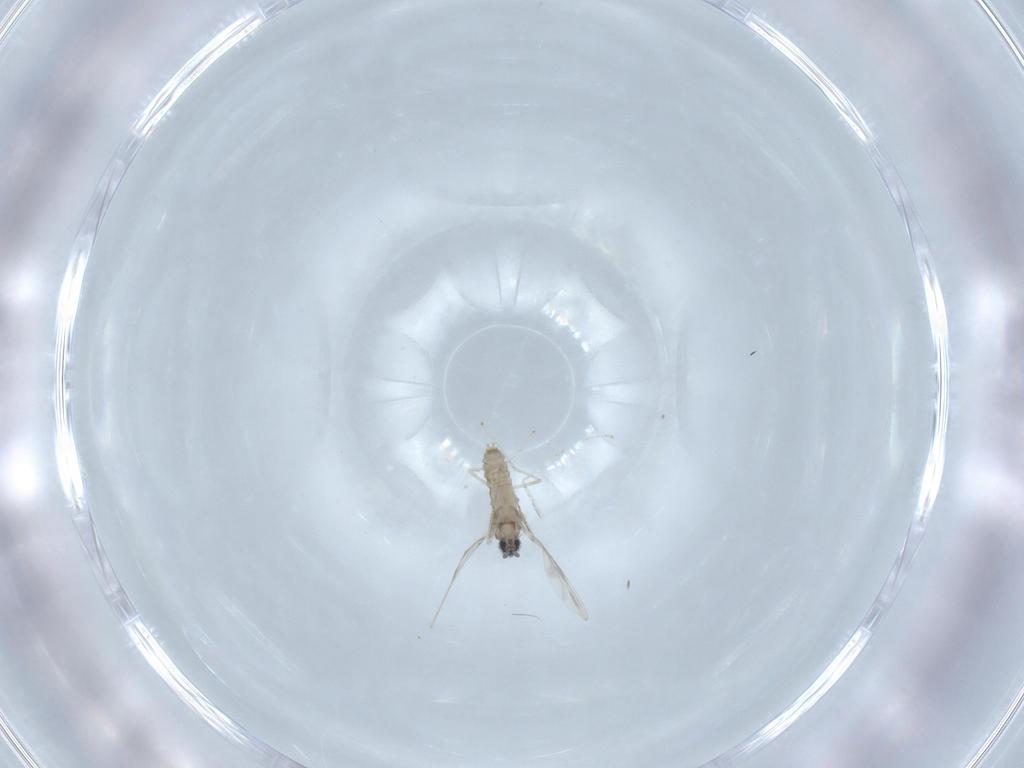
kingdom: Animalia
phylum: Arthropoda
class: Insecta
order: Diptera
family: Cecidomyiidae
